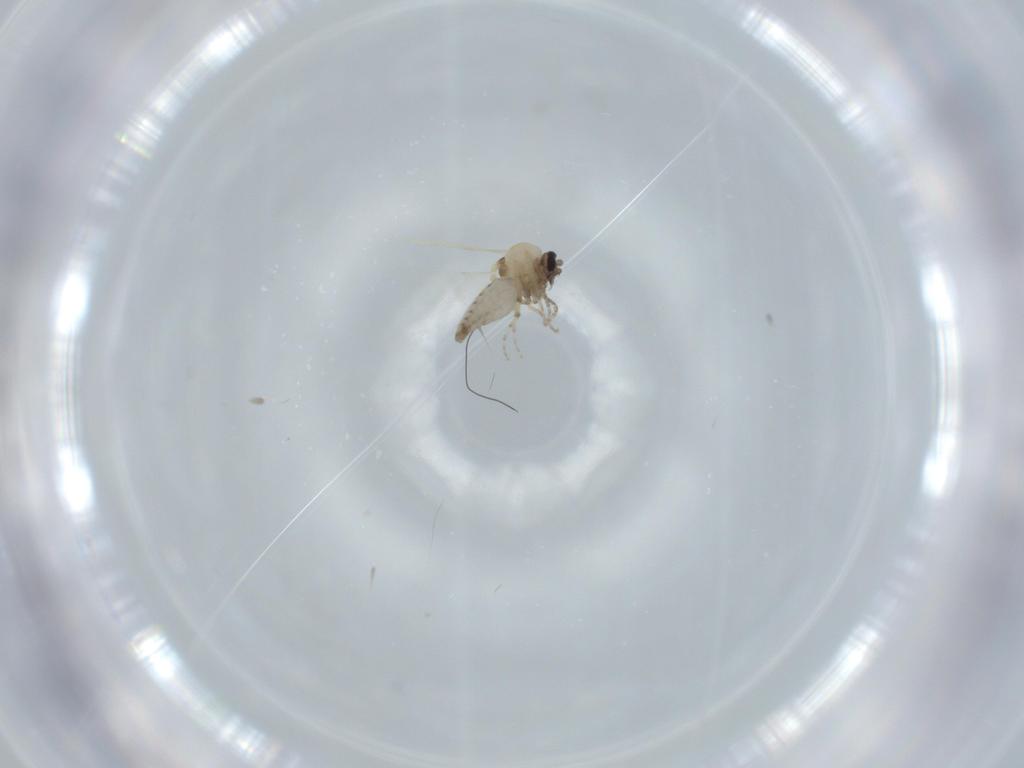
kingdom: Animalia
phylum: Arthropoda
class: Insecta
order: Diptera
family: Ceratopogonidae
